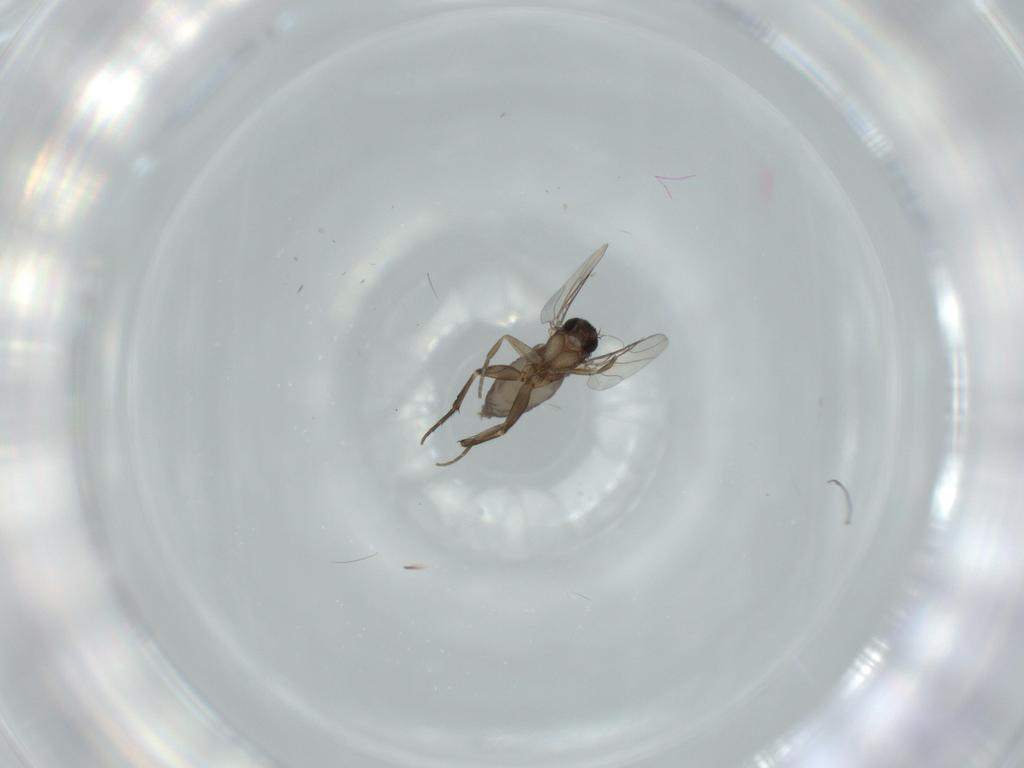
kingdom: Animalia
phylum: Arthropoda
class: Insecta
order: Diptera
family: Phoridae
